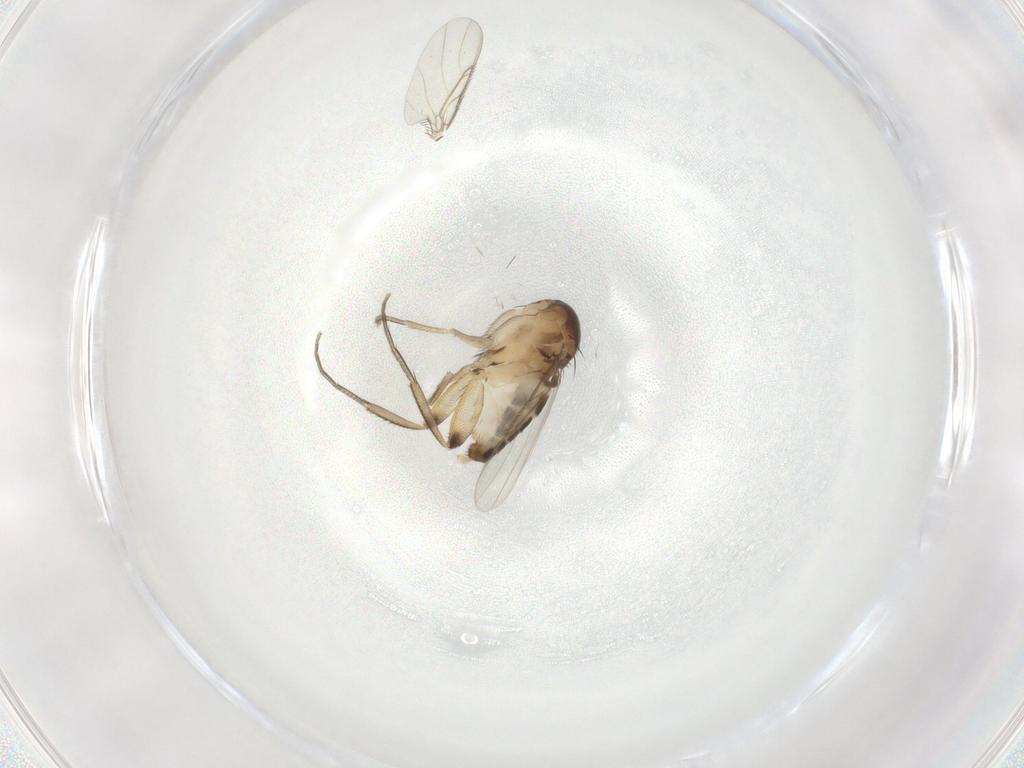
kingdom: Animalia
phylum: Arthropoda
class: Insecta
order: Diptera
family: Phoridae
